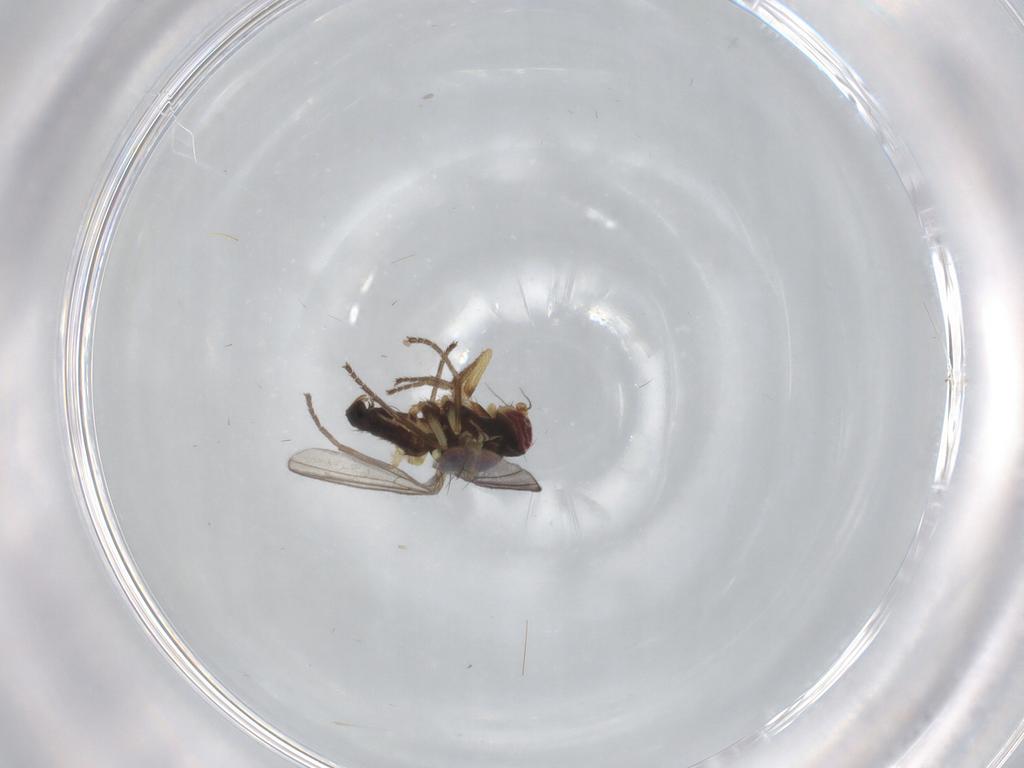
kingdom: Animalia
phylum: Arthropoda
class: Insecta
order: Diptera
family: Agromyzidae
